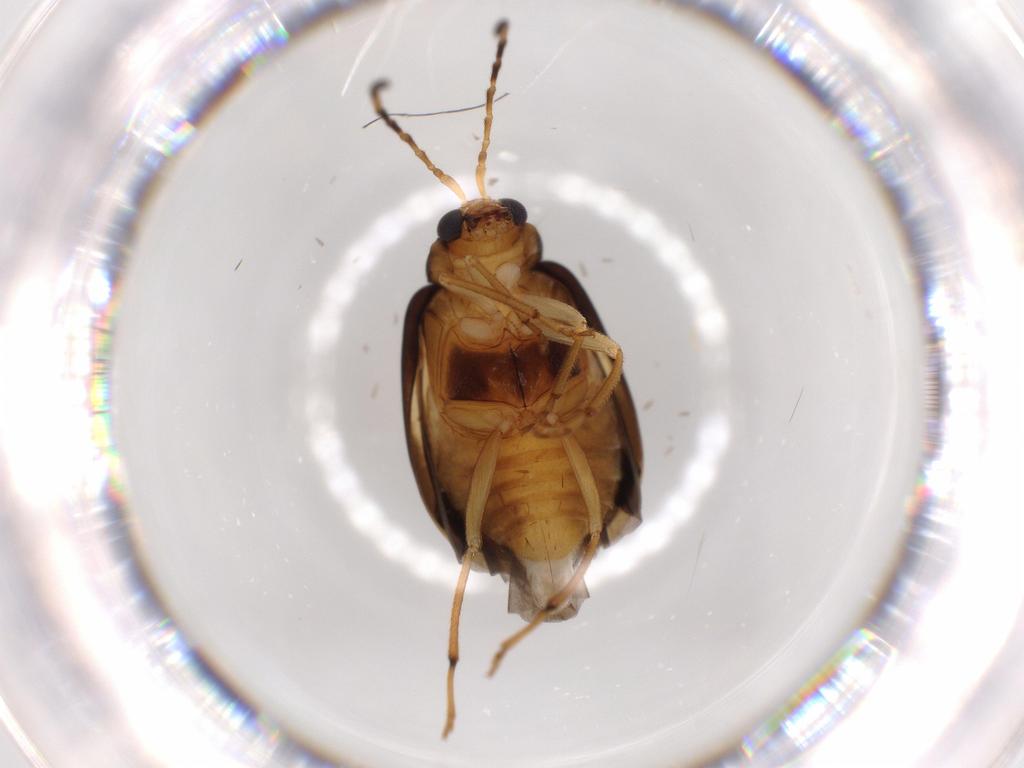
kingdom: Animalia
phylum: Arthropoda
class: Insecta
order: Coleoptera
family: Chrysomelidae
